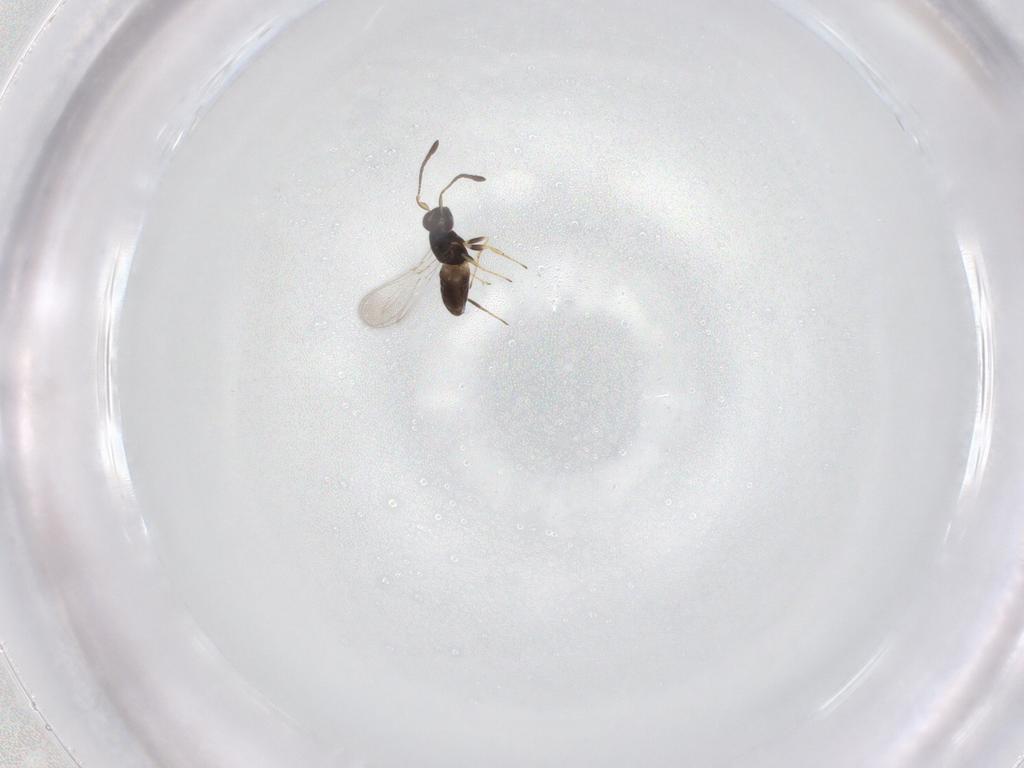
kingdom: Animalia
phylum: Arthropoda
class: Insecta
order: Hymenoptera
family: Mymaridae
